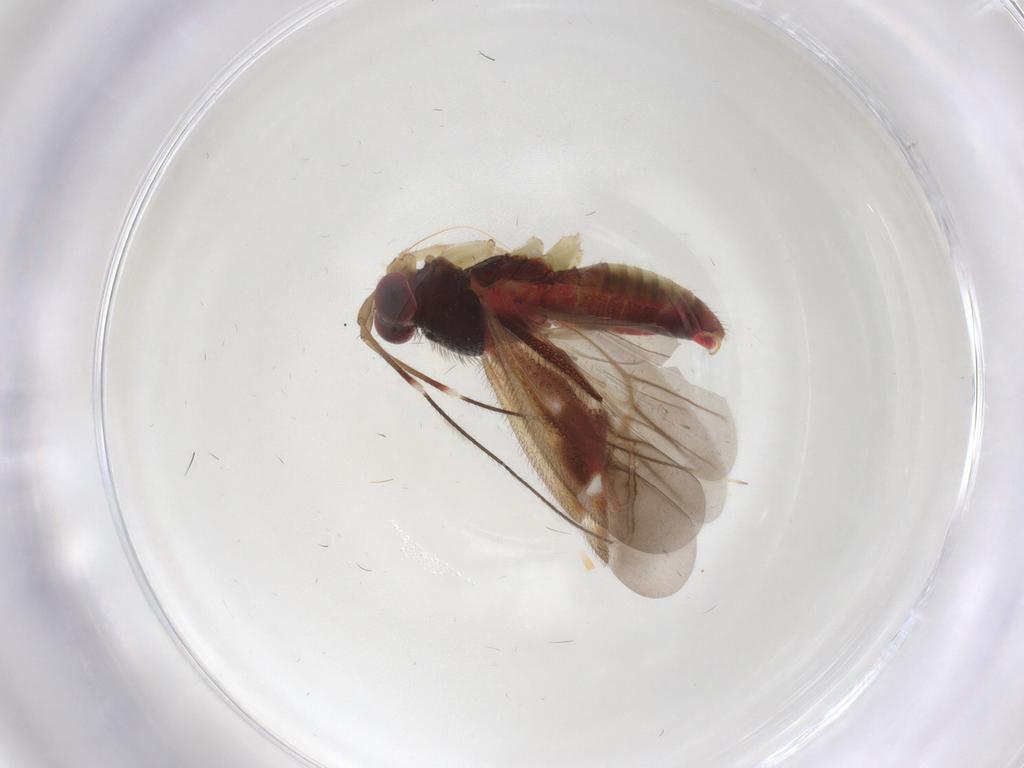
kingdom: Animalia
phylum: Arthropoda
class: Insecta
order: Hemiptera
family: Miridae
